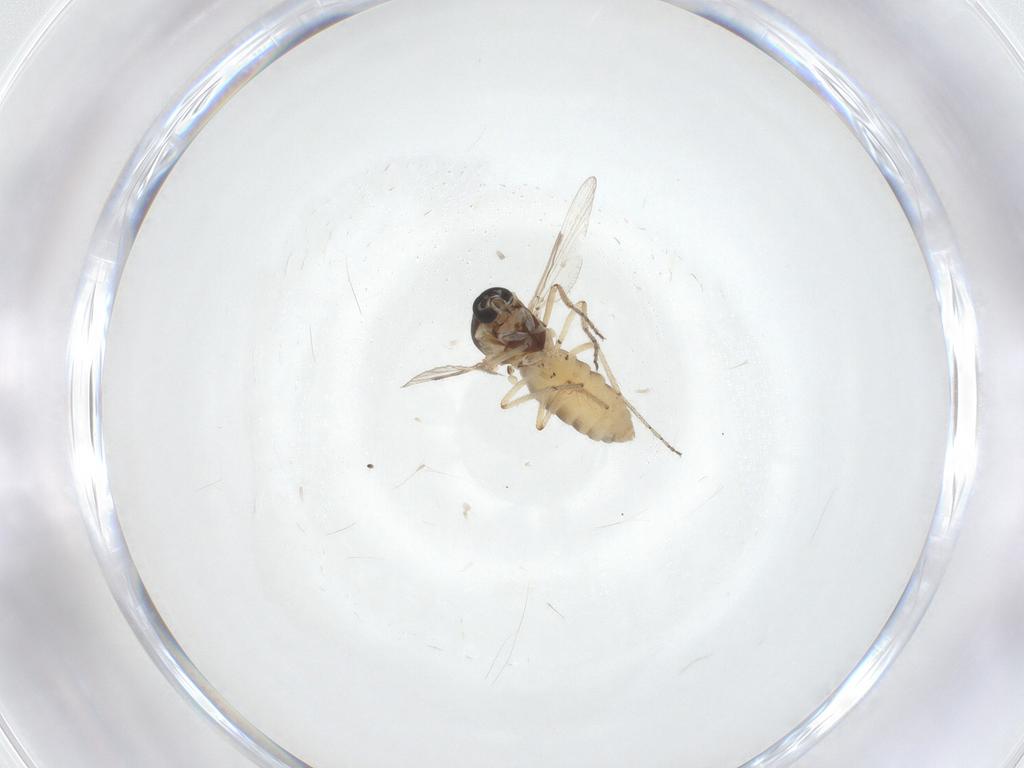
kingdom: Animalia
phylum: Arthropoda
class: Insecta
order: Diptera
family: Ceratopogonidae
